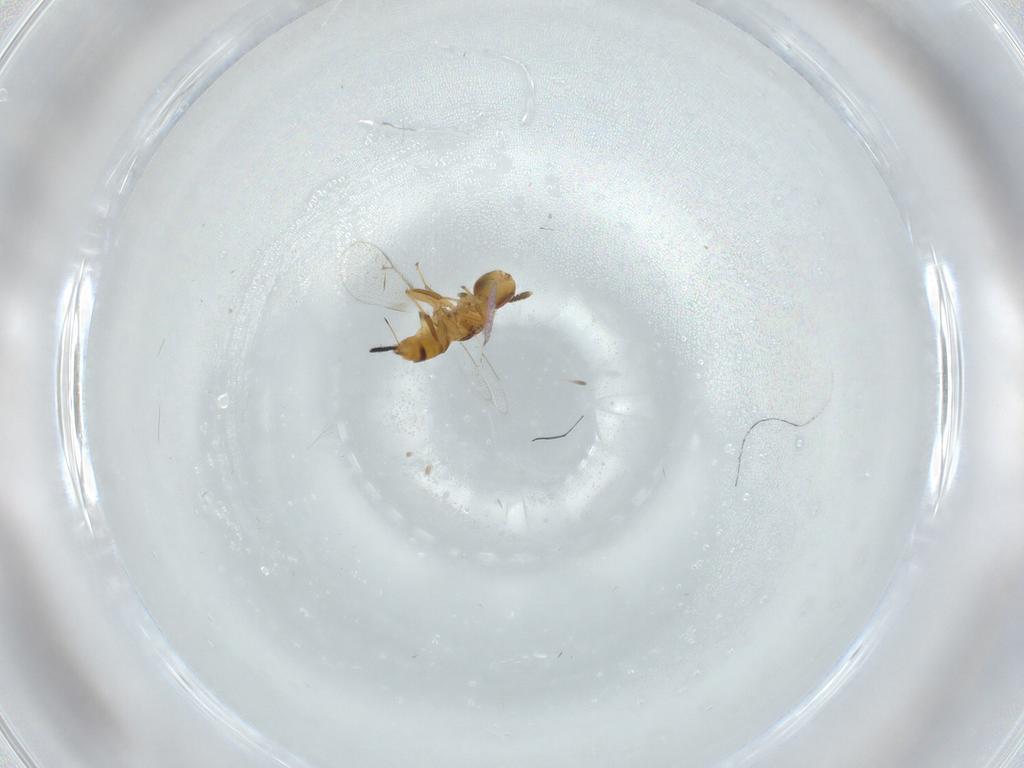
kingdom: Animalia
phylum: Arthropoda
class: Insecta
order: Hymenoptera
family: Torymidae
